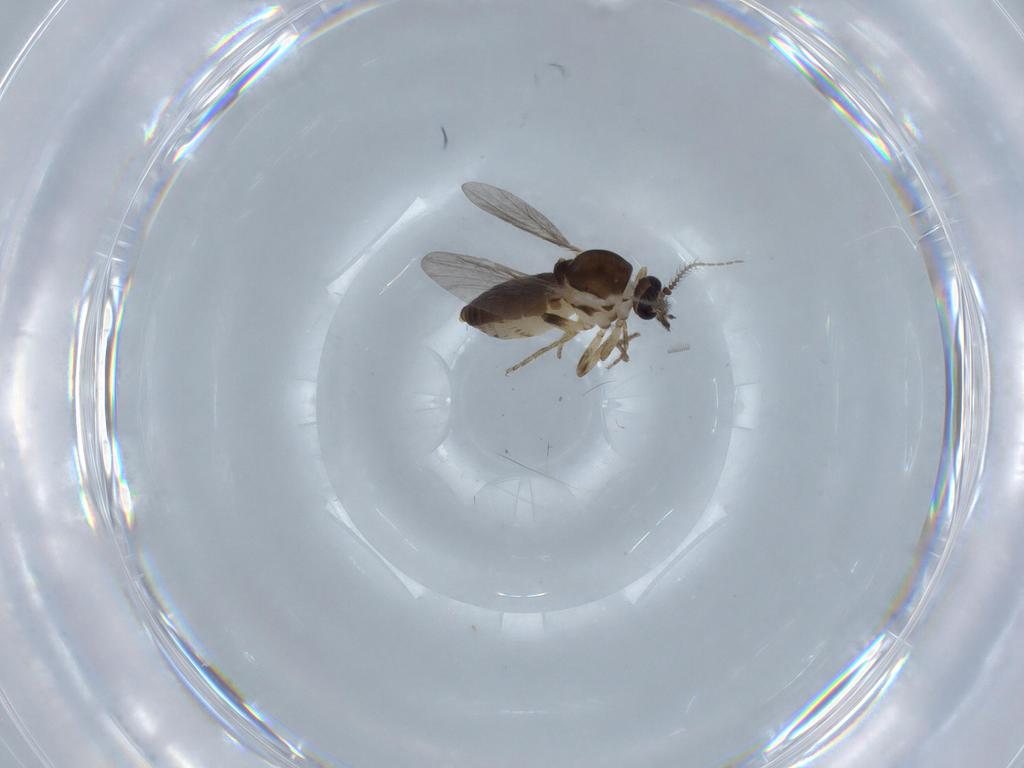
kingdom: Animalia
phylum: Arthropoda
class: Insecta
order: Diptera
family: Ceratopogonidae
